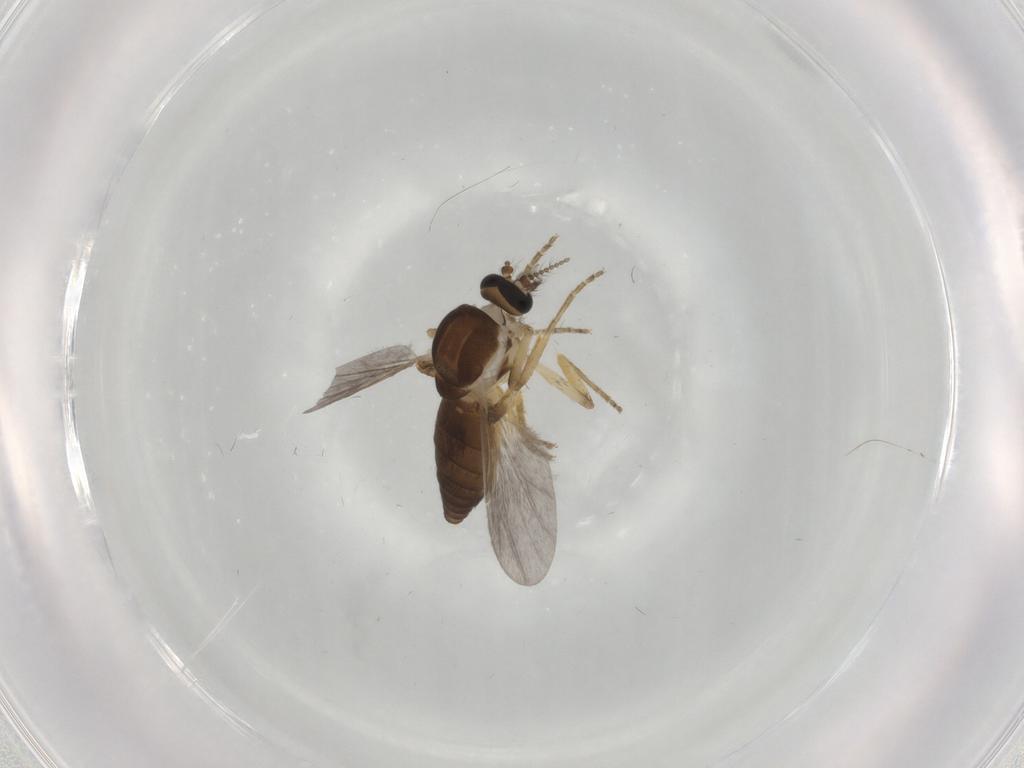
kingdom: Animalia
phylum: Arthropoda
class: Insecta
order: Diptera
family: Ceratopogonidae
